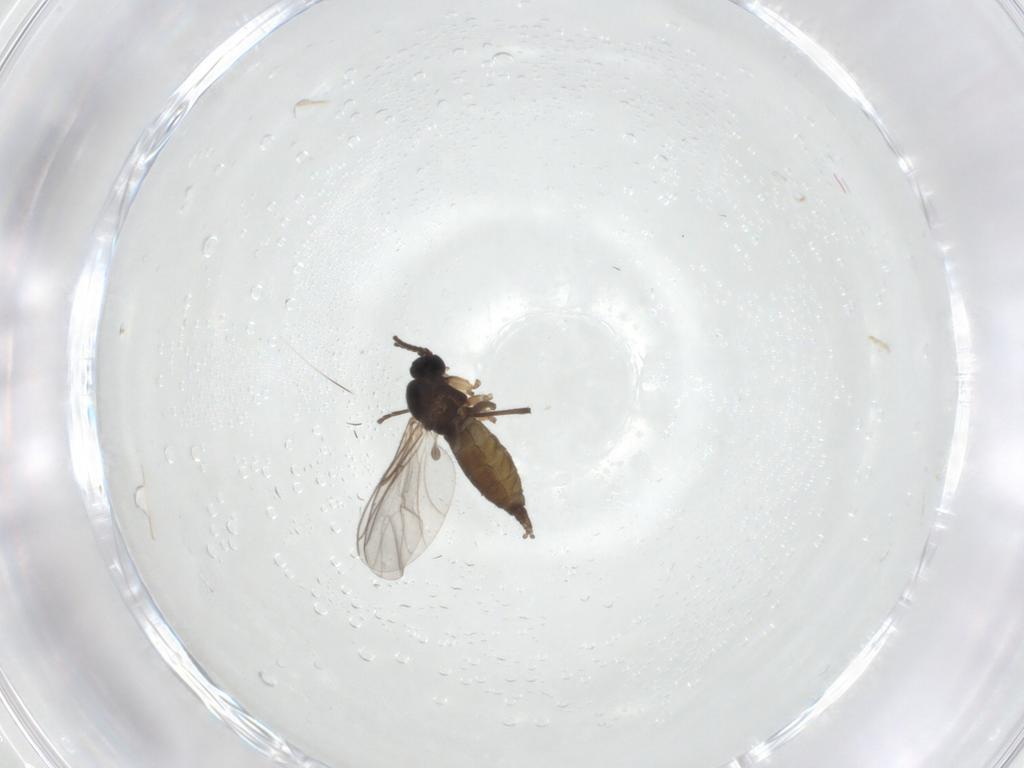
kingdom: Animalia
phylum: Arthropoda
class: Insecta
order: Diptera
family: Sciaridae
